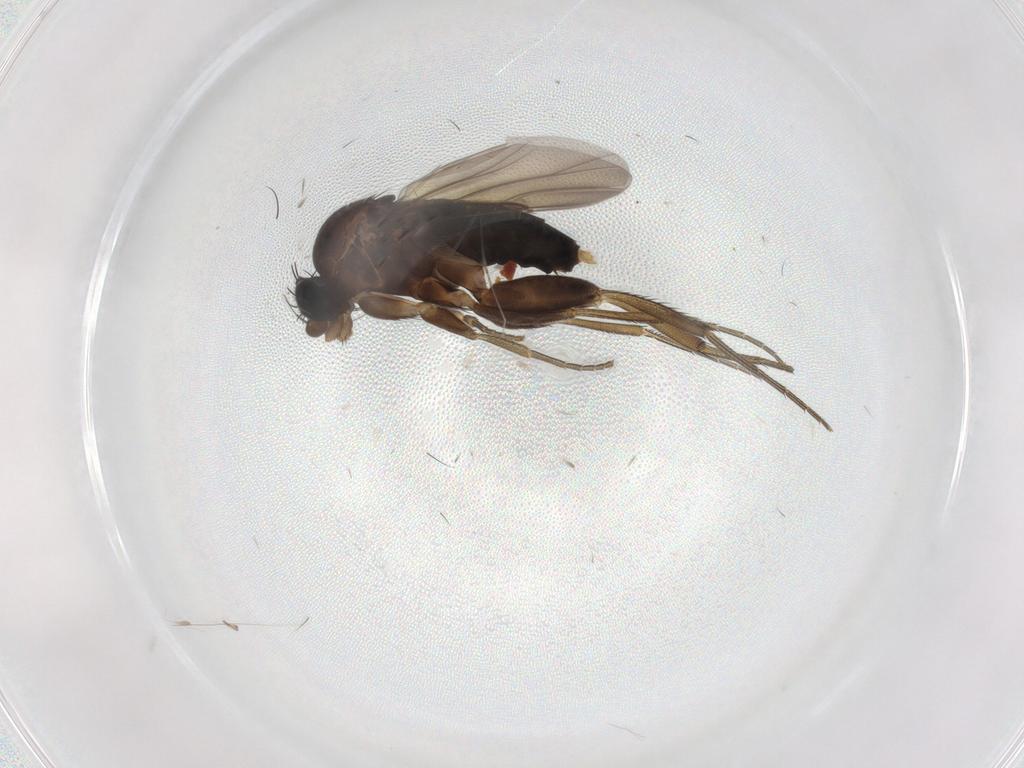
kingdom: Animalia
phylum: Arthropoda
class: Insecta
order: Diptera
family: Phoridae
